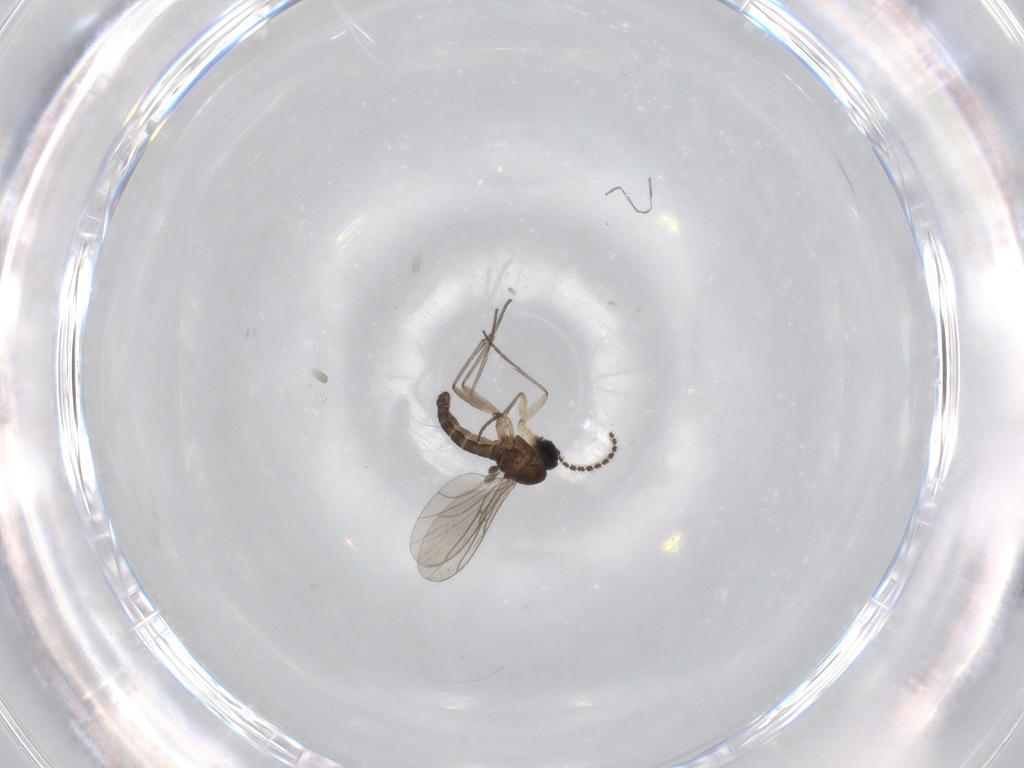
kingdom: Animalia
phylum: Arthropoda
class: Insecta
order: Diptera
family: Sciaridae
